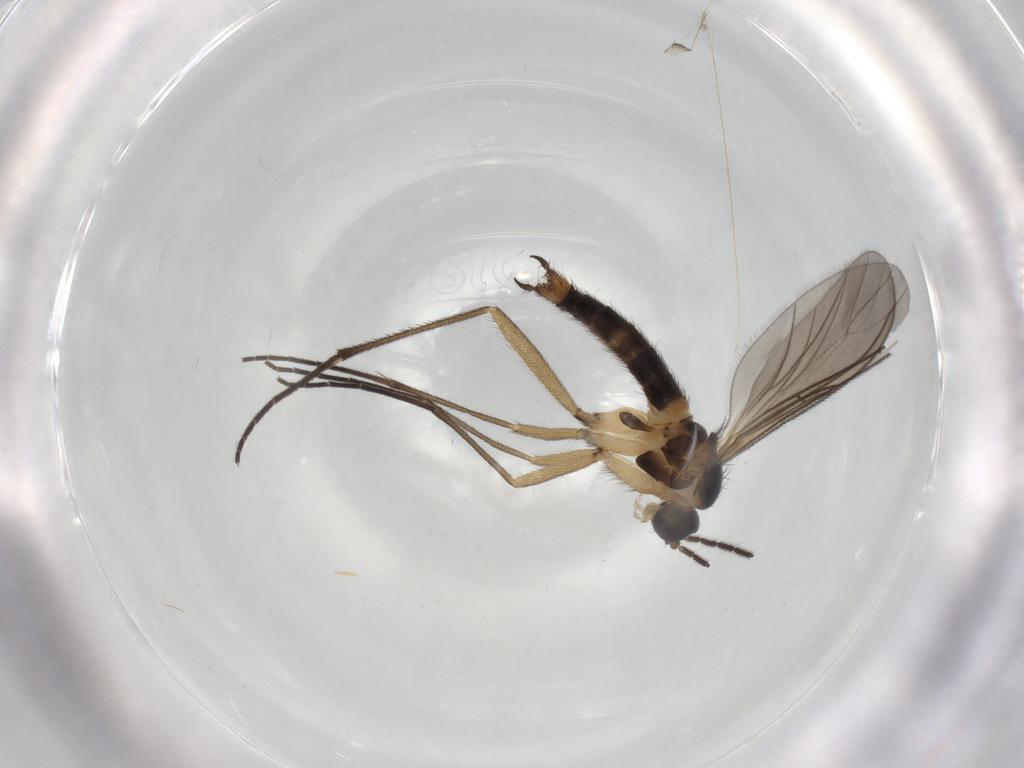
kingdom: Animalia
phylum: Arthropoda
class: Insecta
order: Diptera
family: Sciaridae
